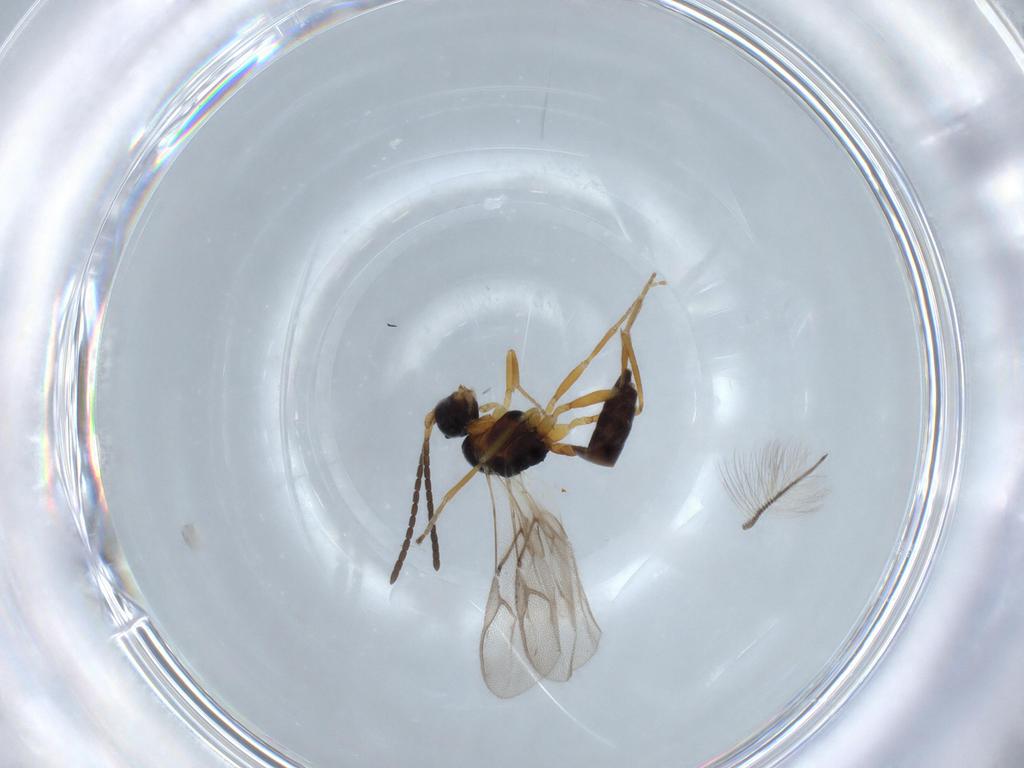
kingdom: Animalia
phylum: Arthropoda
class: Insecta
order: Hymenoptera
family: Braconidae
